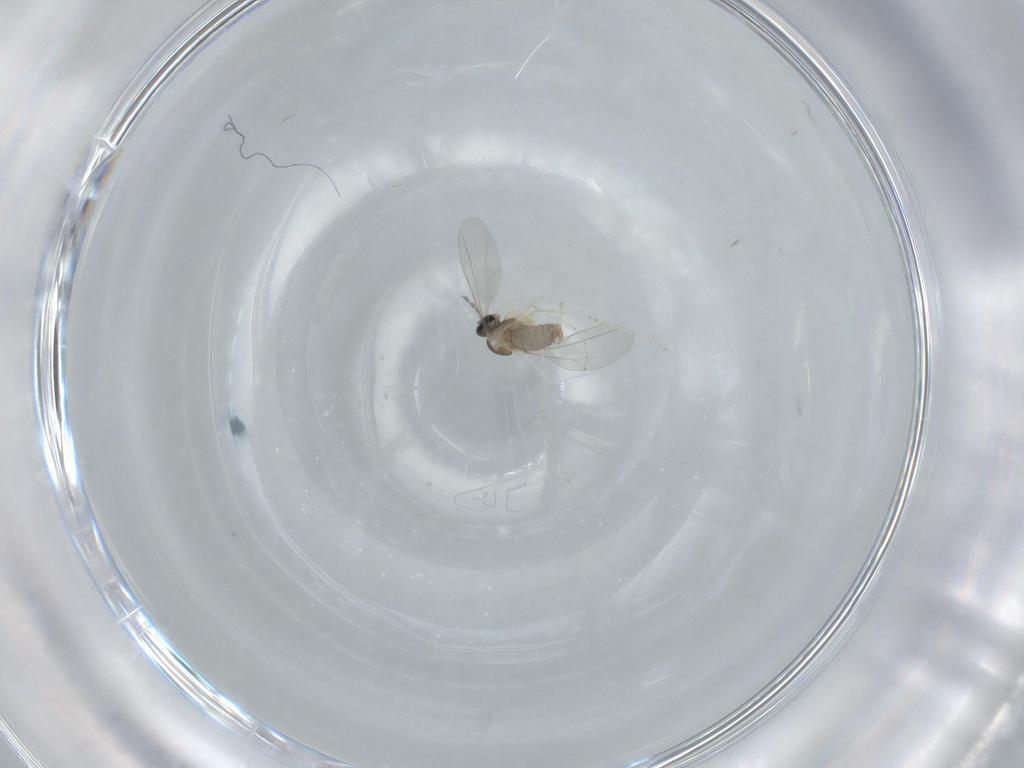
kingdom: Animalia
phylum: Arthropoda
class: Insecta
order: Diptera
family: Cecidomyiidae
